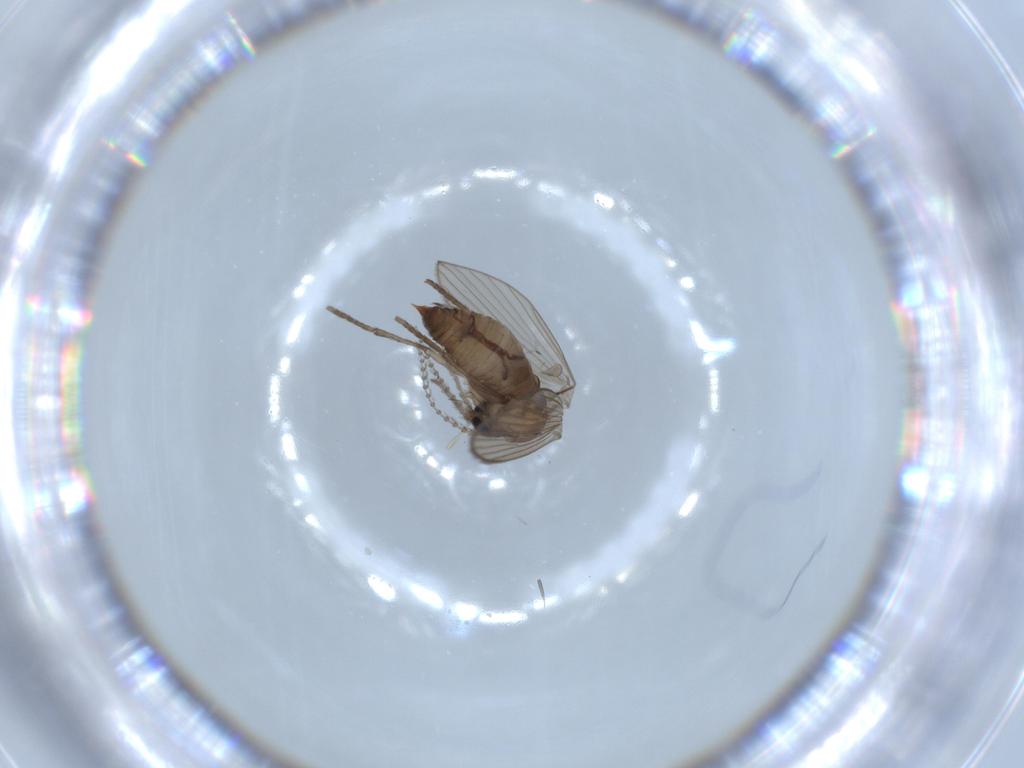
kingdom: Animalia
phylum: Arthropoda
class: Insecta
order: Diptera
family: Psychodidae
